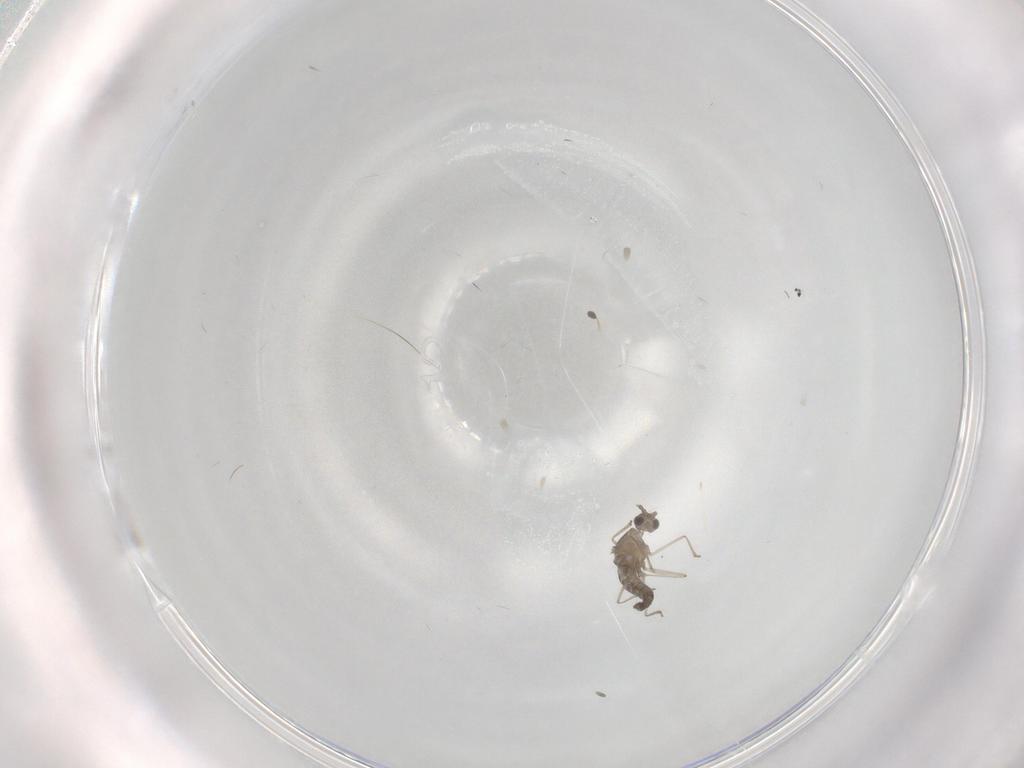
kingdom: Animalia
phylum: Arthropoda
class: Insecta
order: Diptera
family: Cecidomyiidae
